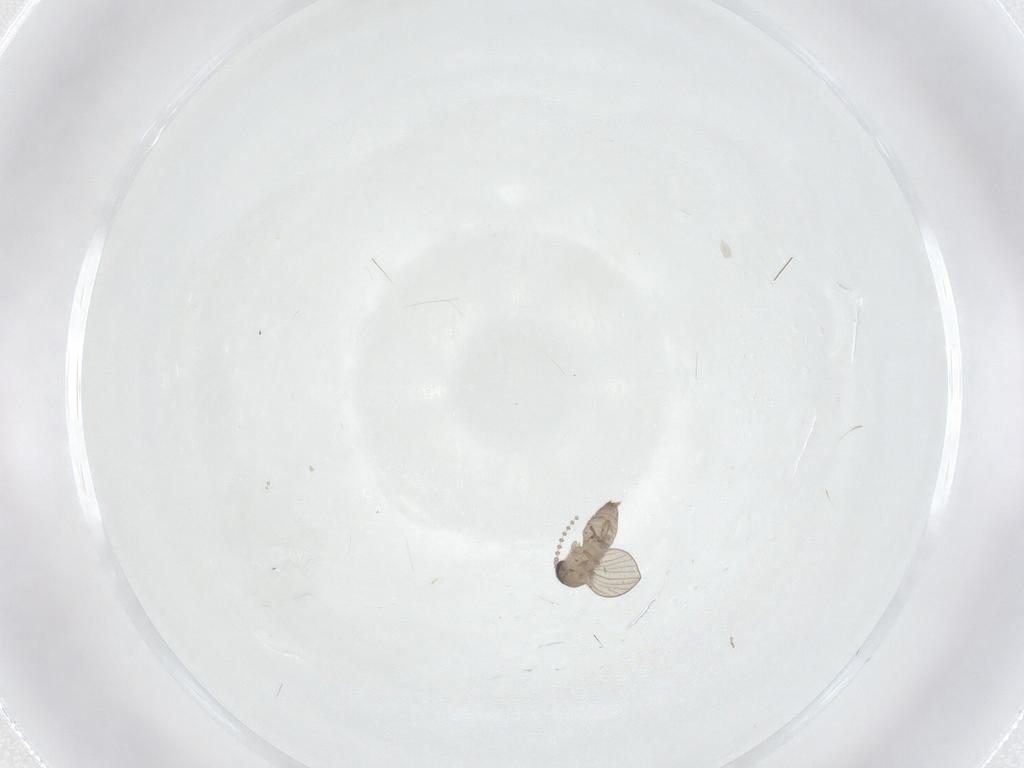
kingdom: Animalia
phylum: Arthropoda
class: Insecta
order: Diptera
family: Psychodidae
